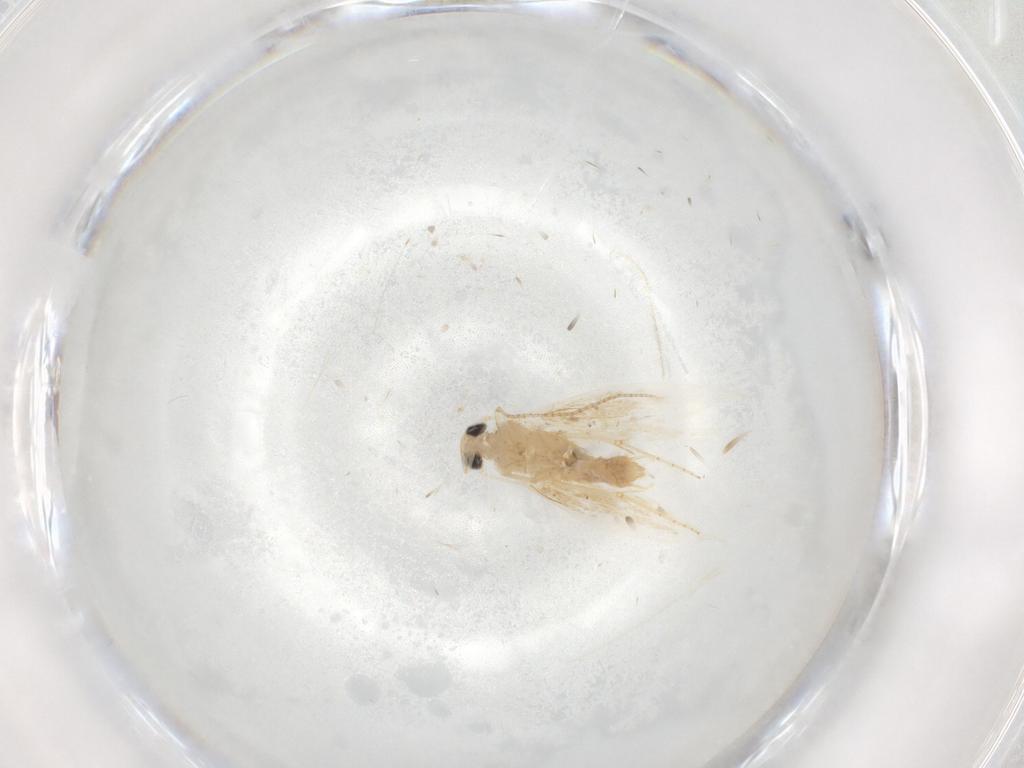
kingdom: Animalia
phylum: Arthropoda
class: Insecta
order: Lepidoptera
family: Bucculatricidae
